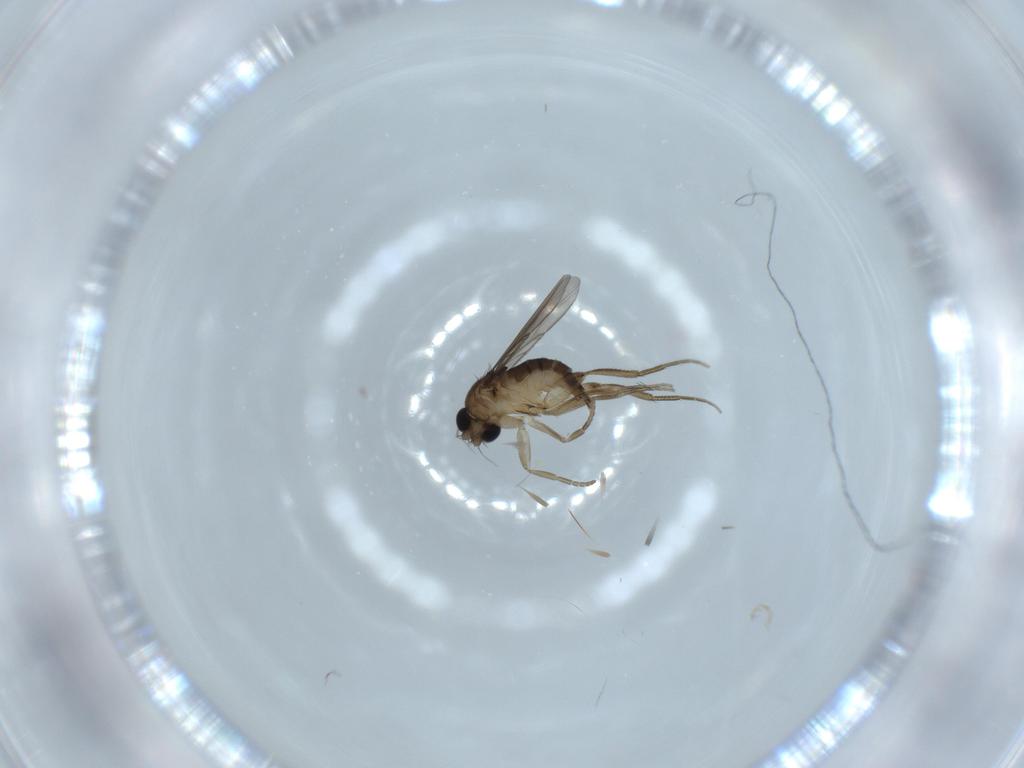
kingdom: Animalia
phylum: Arthropoda
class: Insecta
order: Diptera
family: Phoridae
